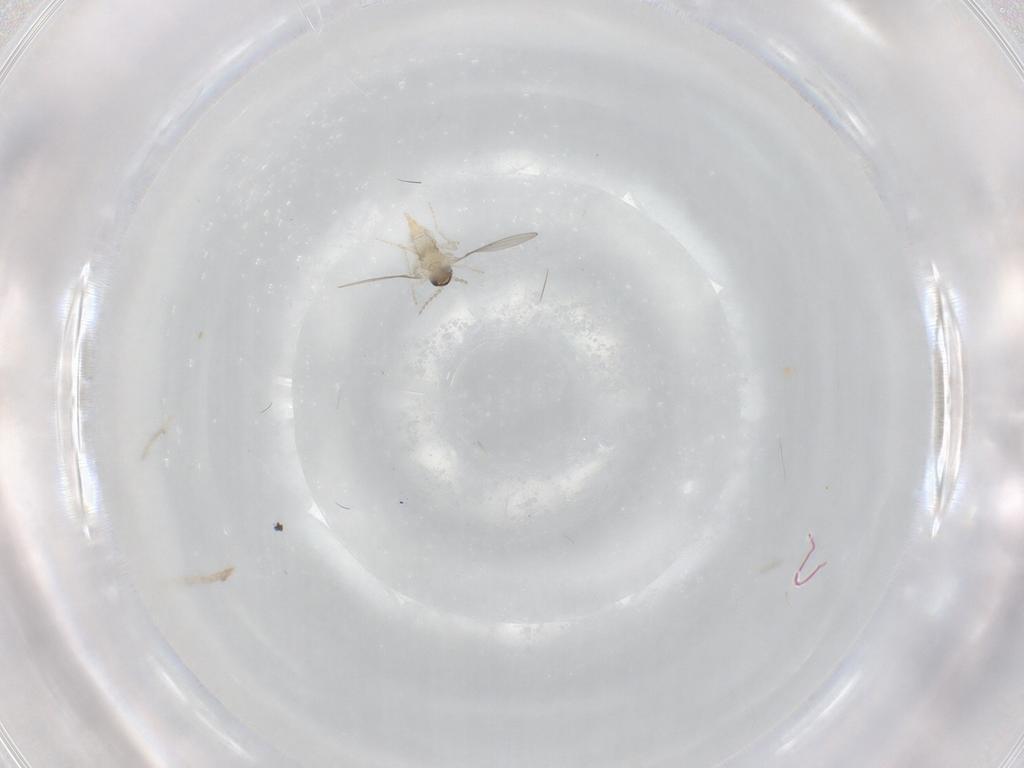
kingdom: Animalia
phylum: Arthropoda
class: Insecta
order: Diptera
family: Cecidomyiidae
